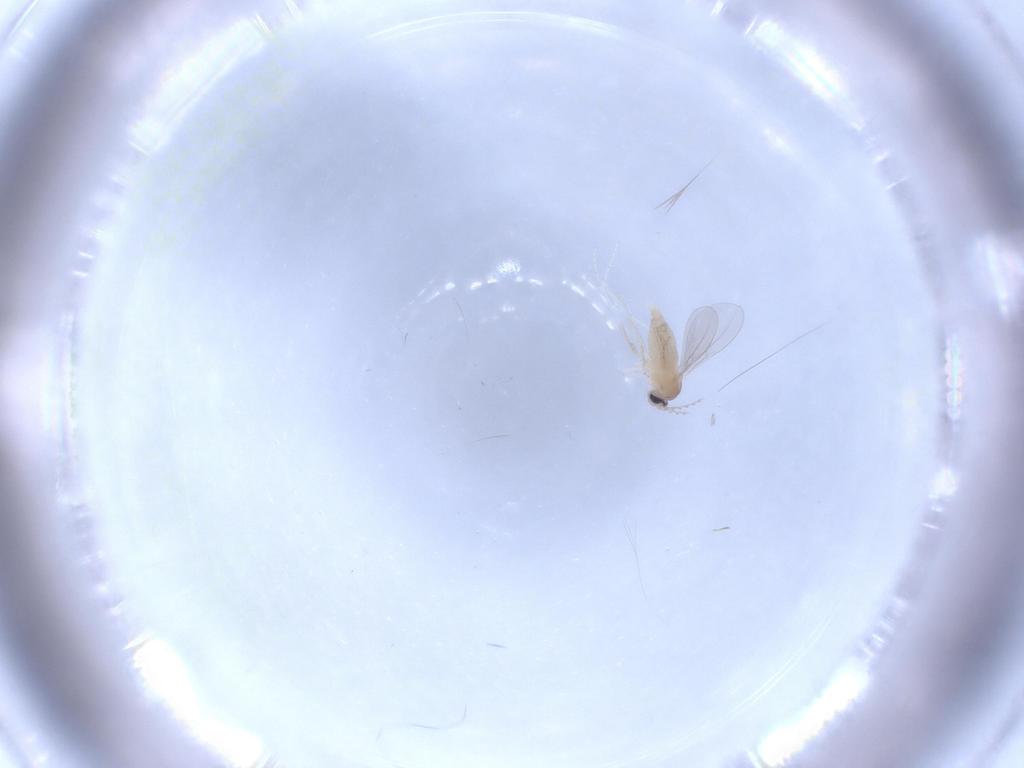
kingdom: Animalia
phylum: Arthropoda
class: Insecta
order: Diptera
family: Cecidomyiidae
